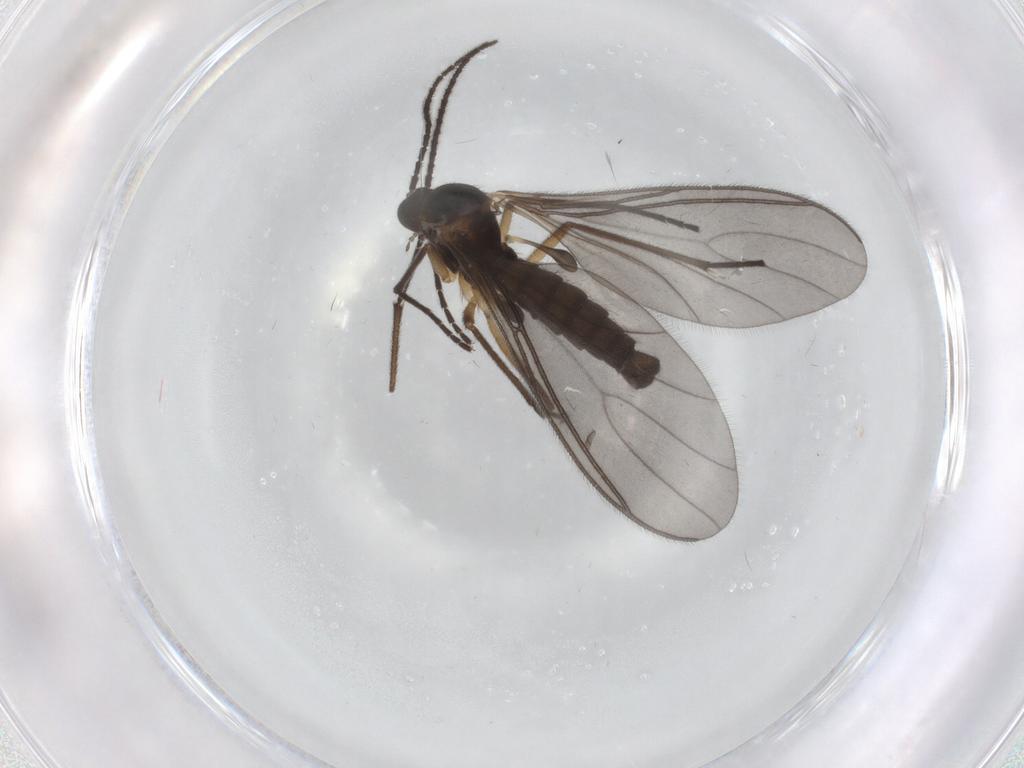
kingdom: Animalia
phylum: Arthropoda
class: Insecta
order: Diptera
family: Sciaridae
